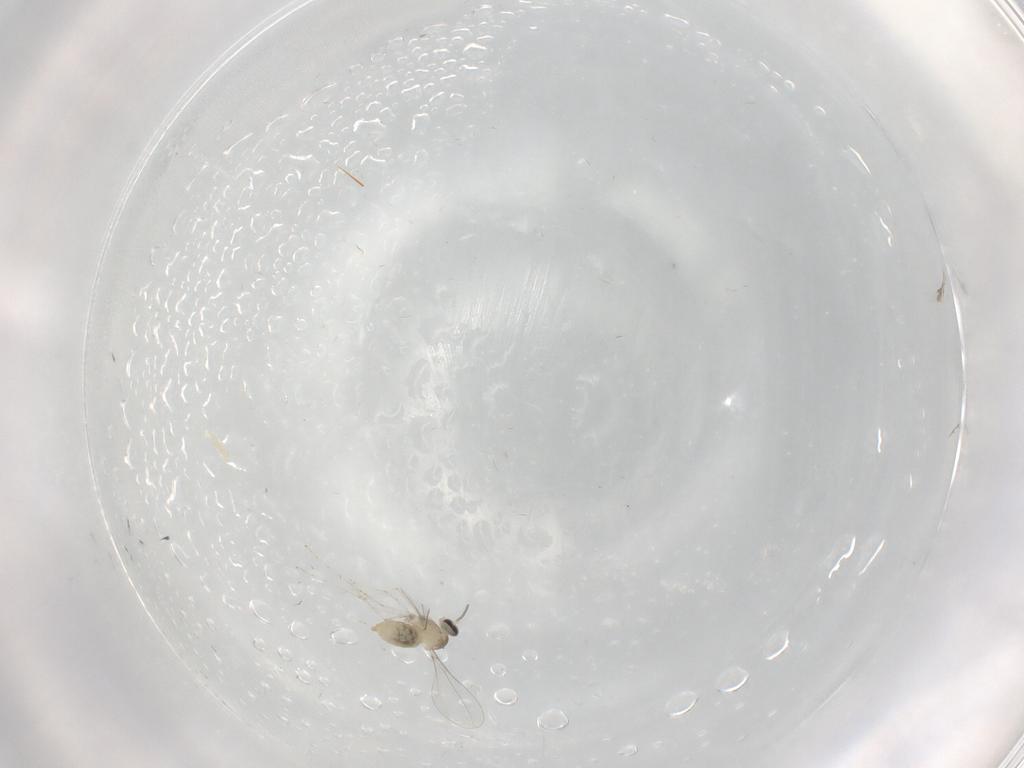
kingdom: Animalia
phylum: Arthropoda
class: Insecta
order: Diptera
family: Cecidomyiidae
